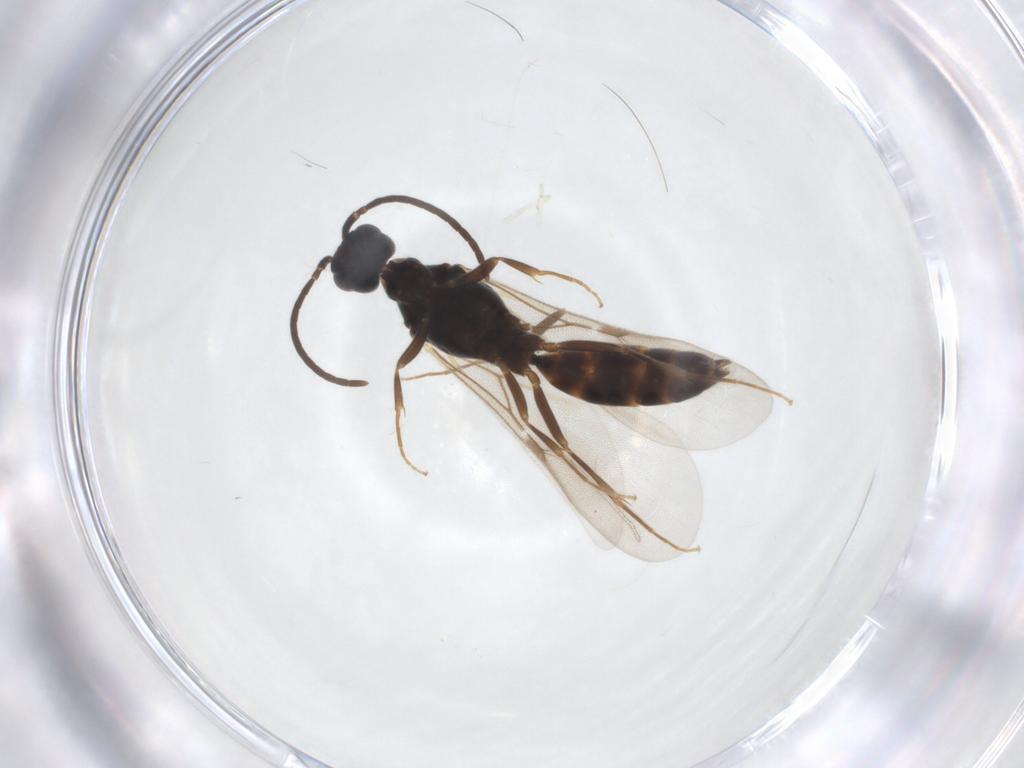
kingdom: Animalia
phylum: Arthropoda
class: Insecta
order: Hymenoptera
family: Bethylidae
